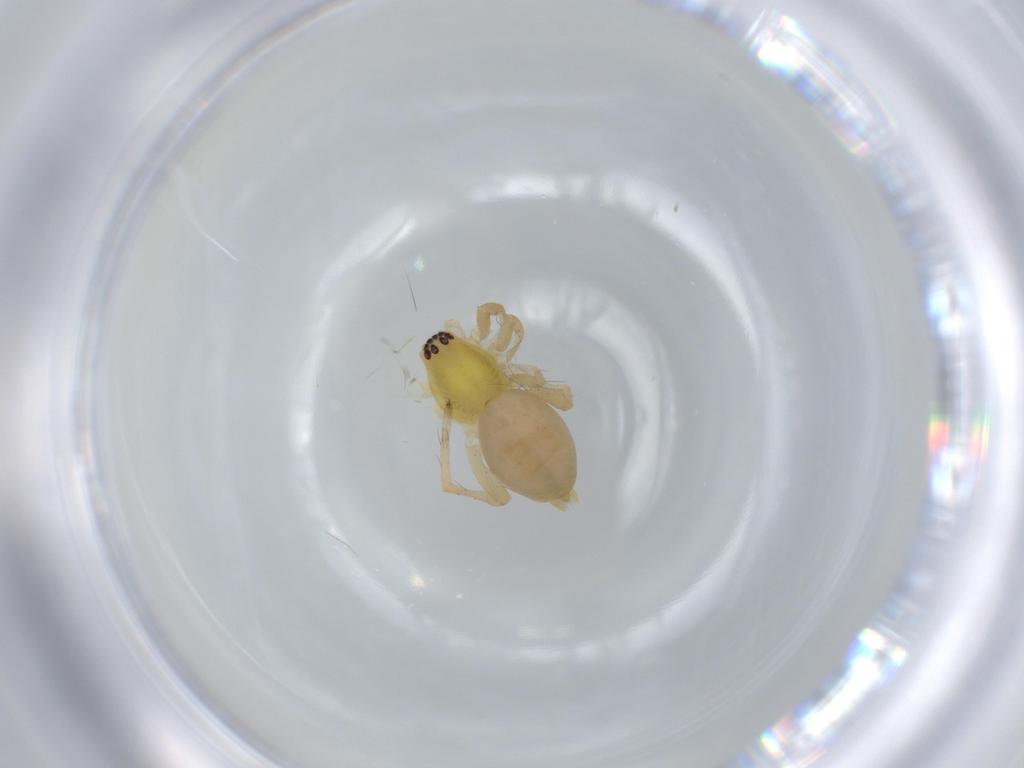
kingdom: Animalia
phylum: Arthropoda
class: Arachnida
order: Araneae
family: Anyphaenidae
